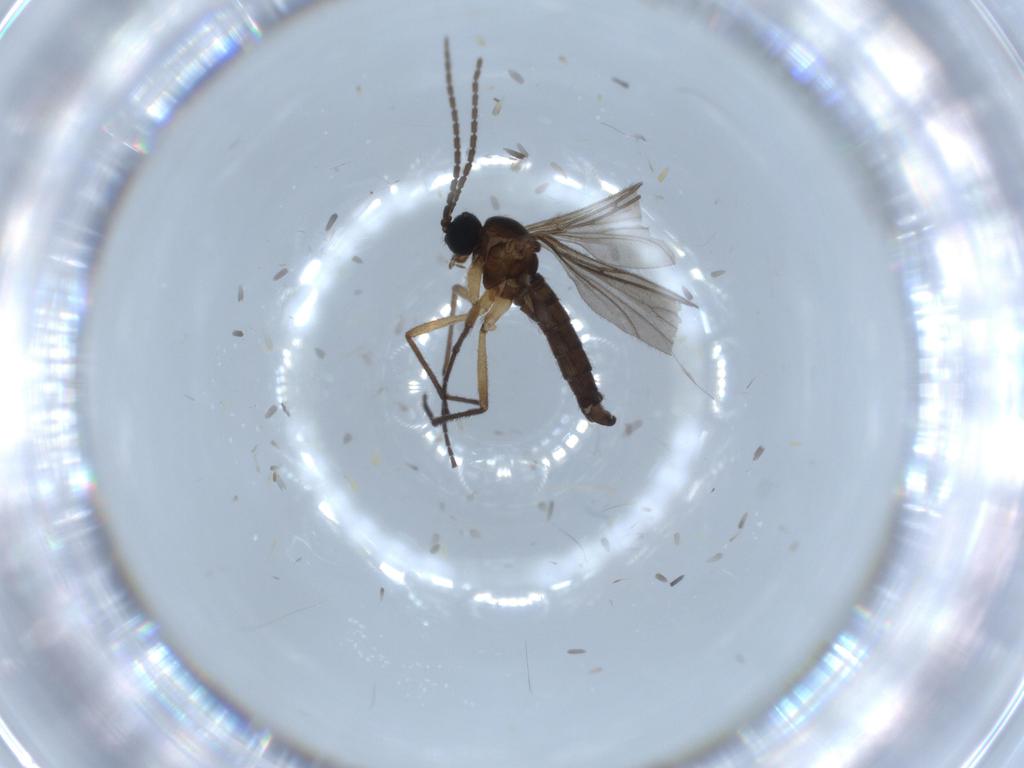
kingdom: Animalia
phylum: Arthropoda
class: Insecta
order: Diptera
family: Sciaridae
